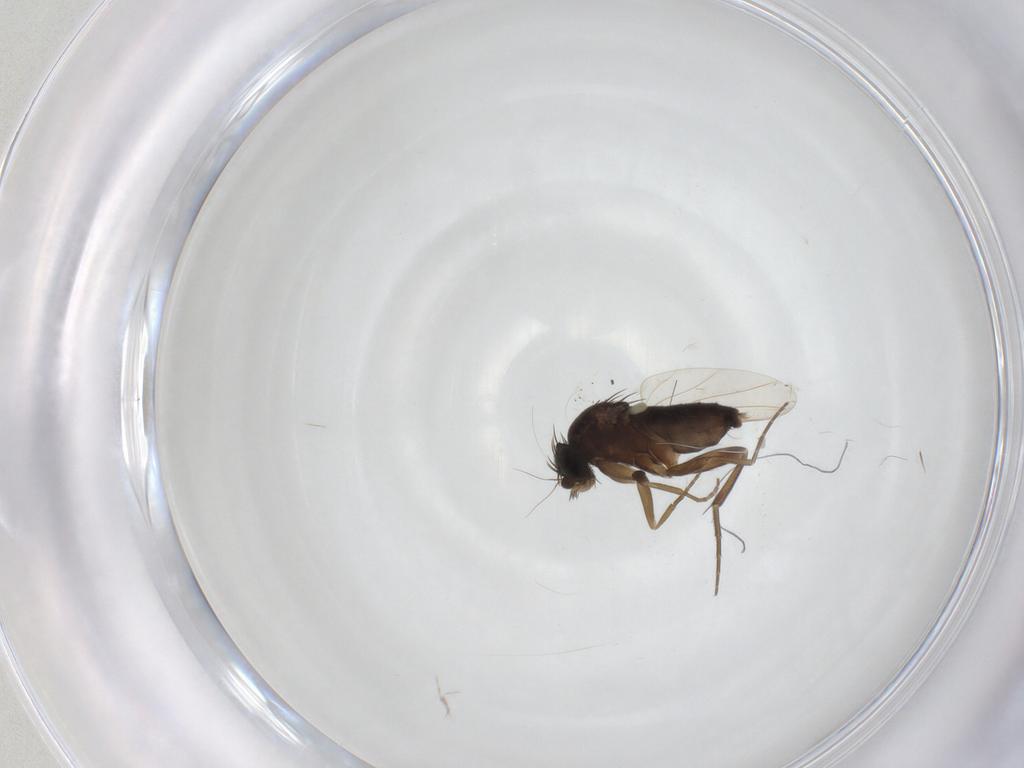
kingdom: Animalia
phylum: Arthropoda
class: Insecta
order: Diptera
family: Phoridae
